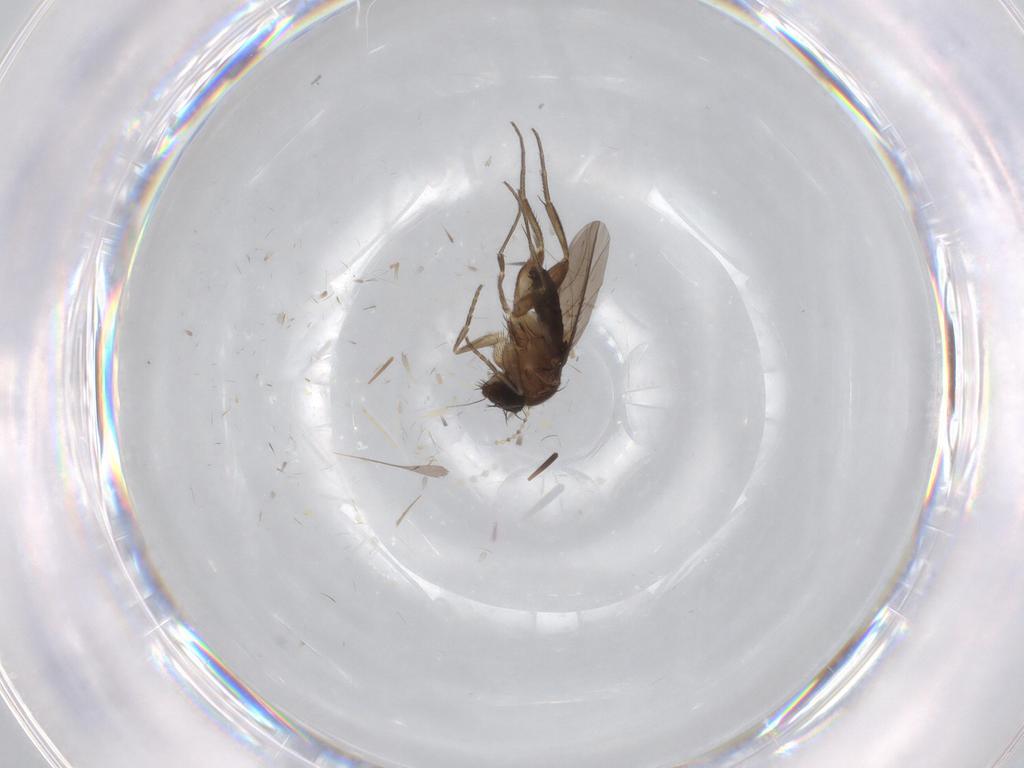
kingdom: Animalia
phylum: Arthropoda
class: Insecta
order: Diptera
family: Phoridae
